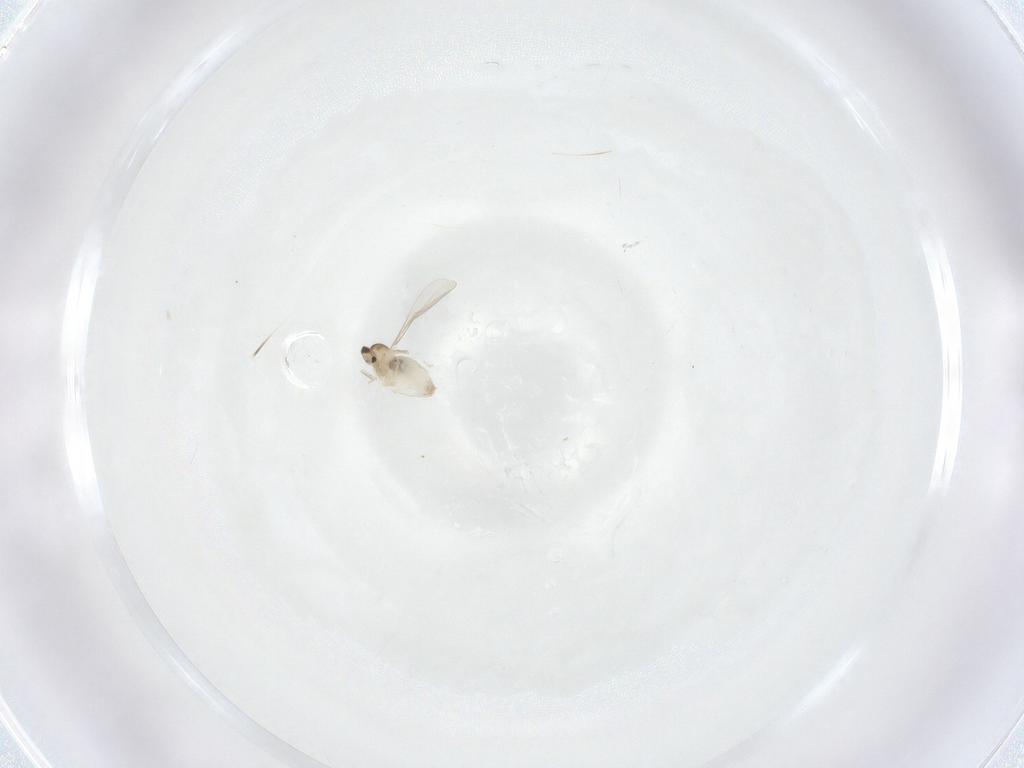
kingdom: Animalia
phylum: Arthropoda
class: Insecta
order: Diptera
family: Cecidomyiidae
